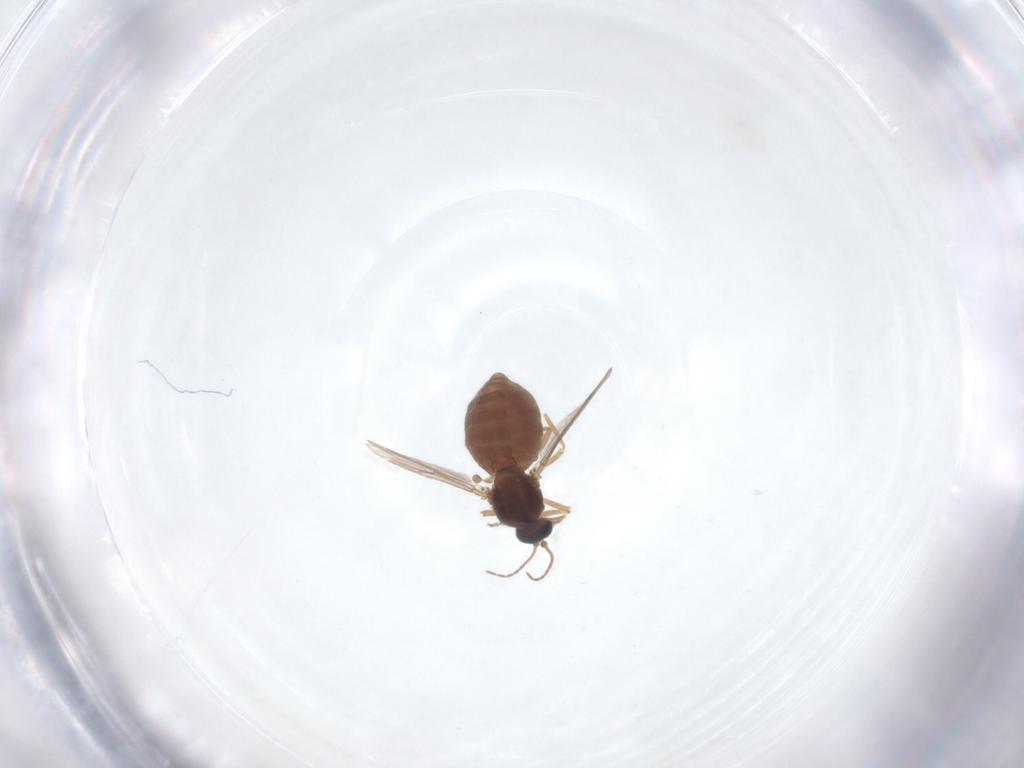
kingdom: Animalia
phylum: Arthropoda
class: Insecta
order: Diptera
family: Ceratopogonidae
